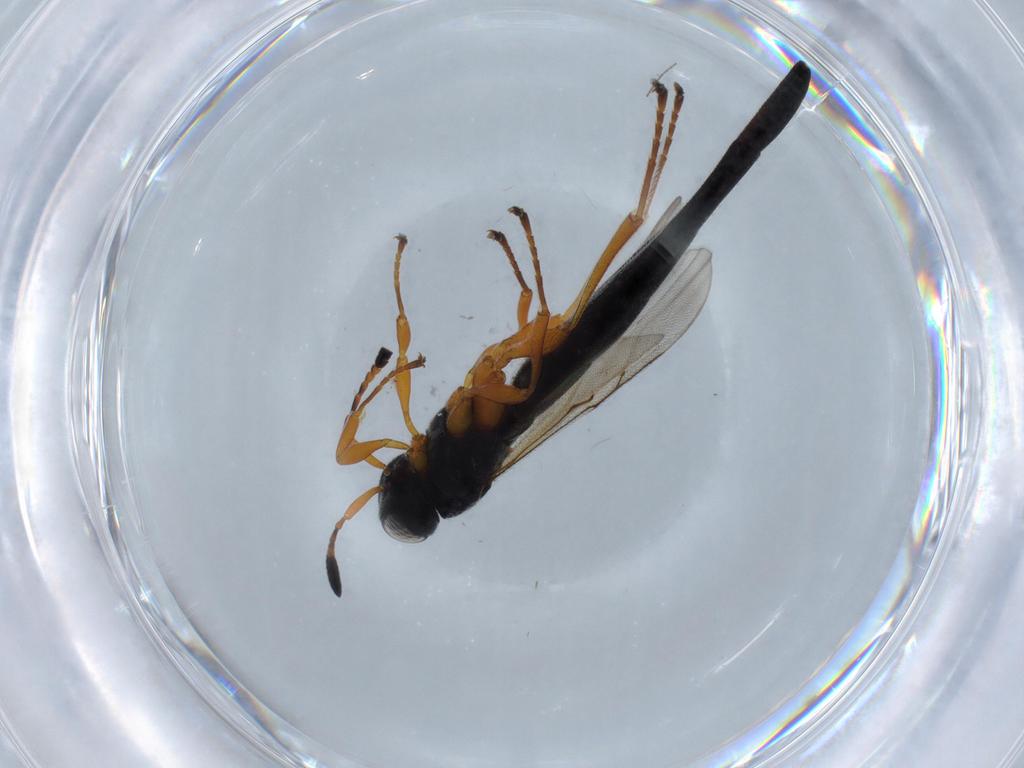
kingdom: Animalia
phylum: Arthropoda
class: Insecta
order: Hymenoptera
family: Scelionidae
